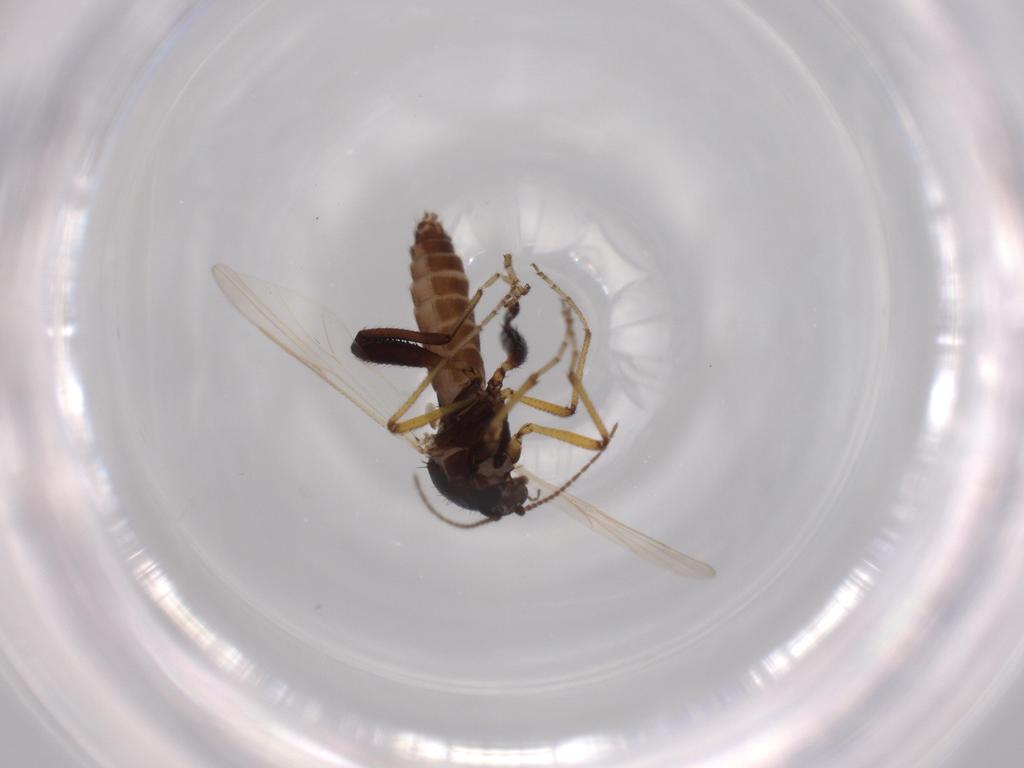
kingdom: Animalia
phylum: Arthropoda
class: Insecta
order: Diptera
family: Ceratopogonidae
